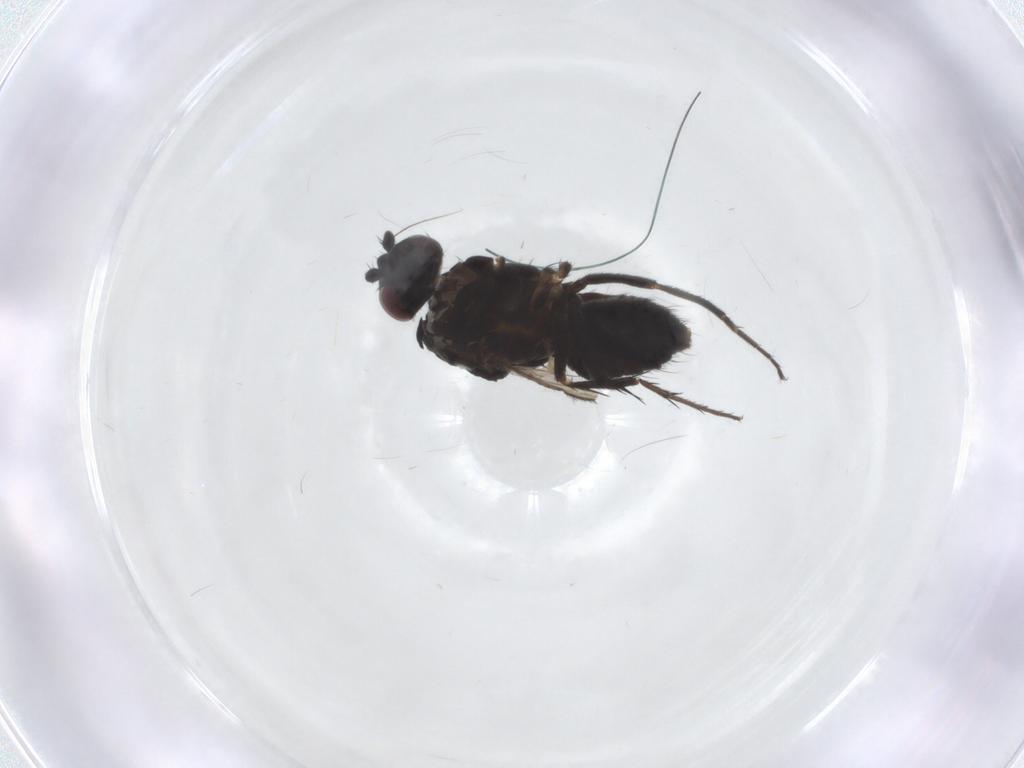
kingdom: Animalia
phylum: Arthropoda
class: Insecta
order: Diptera
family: Sphaeroceridae
